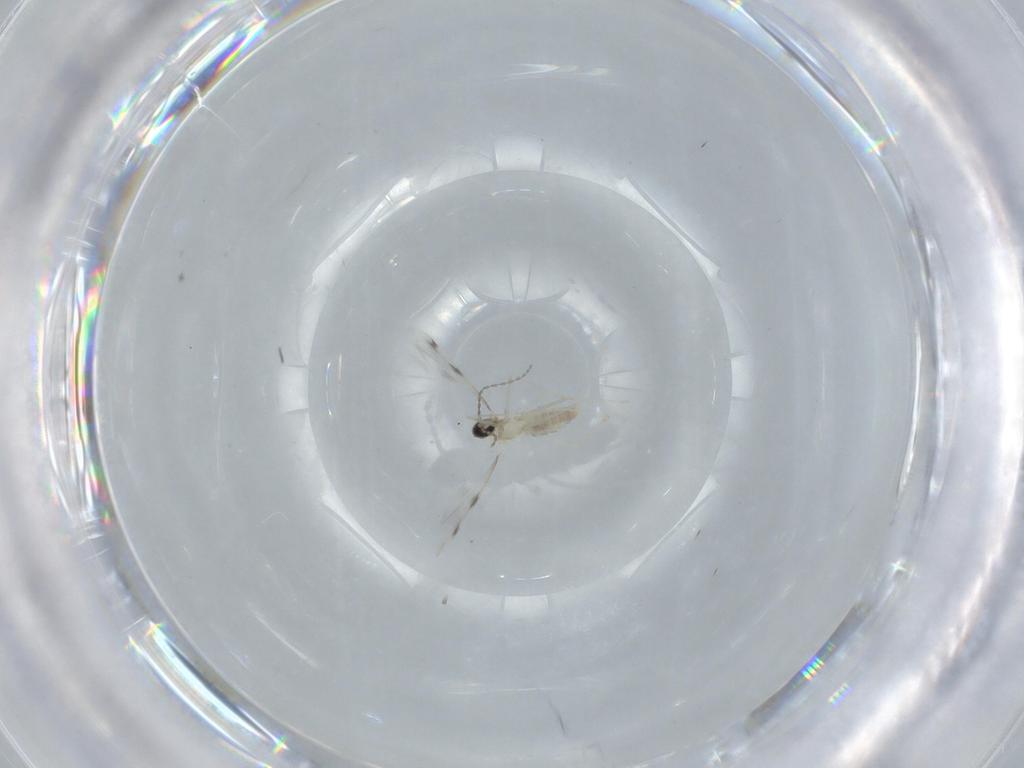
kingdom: Animalia
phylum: Arthropoda
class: Insecta
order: Diptera
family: Cecidomyiidae
